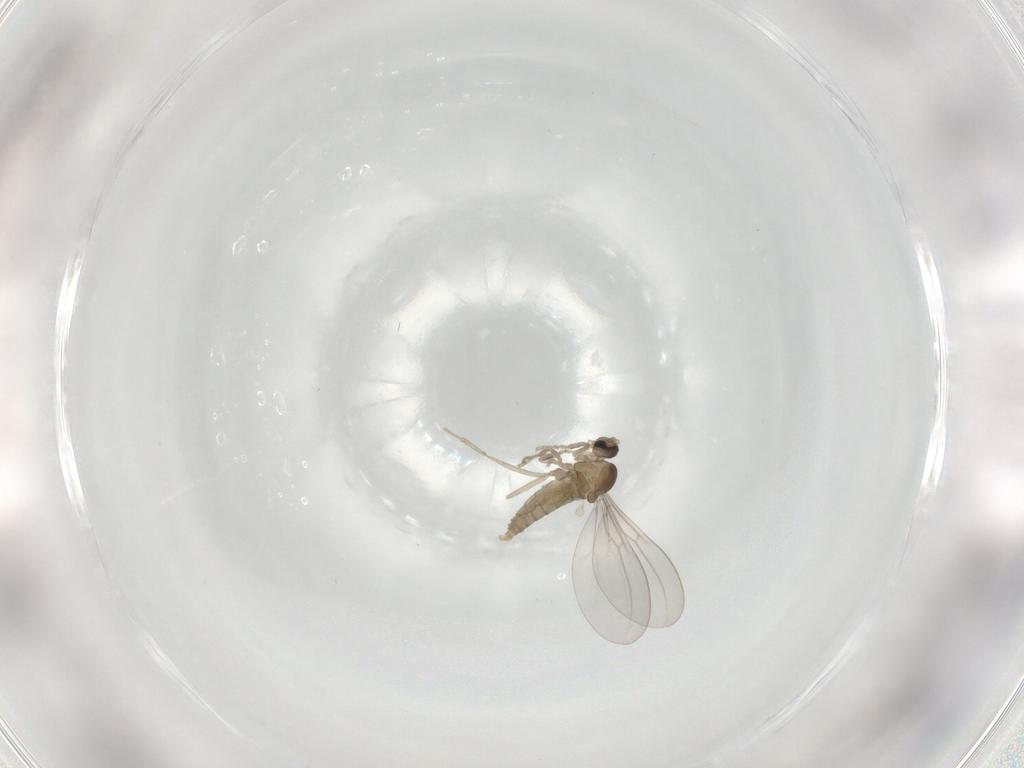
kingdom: Animalia
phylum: Arthropoda
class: Insecta
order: Diptera
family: Cecidomyiidae
